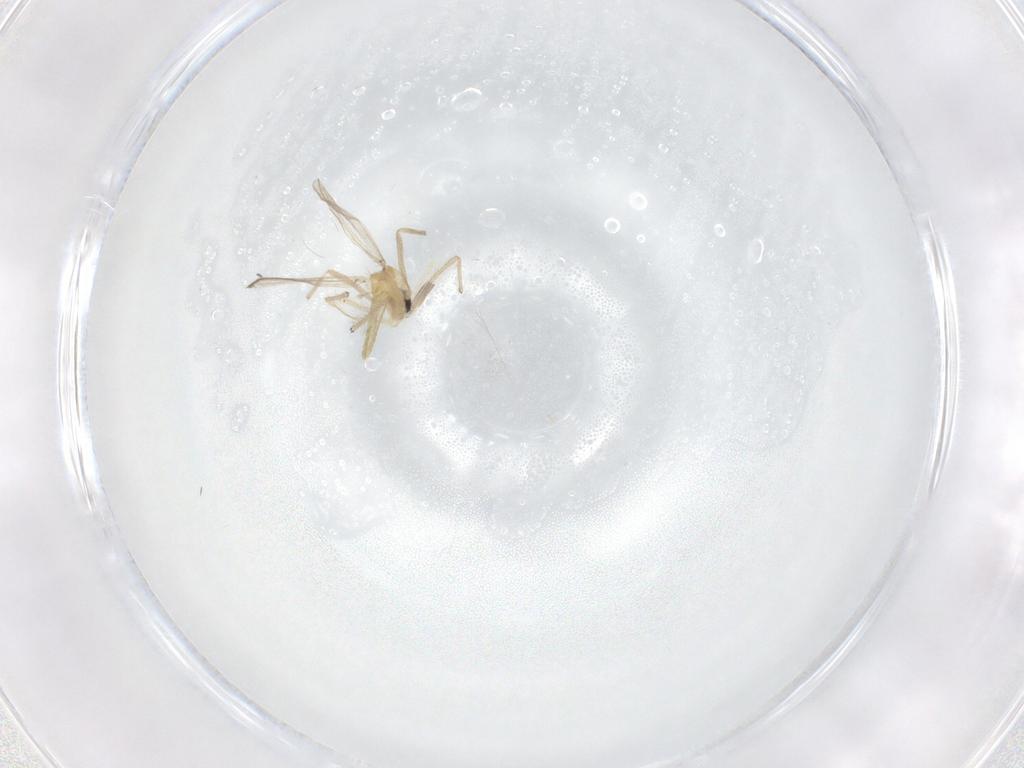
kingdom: Animalia
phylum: Arthropoda
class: Insecta
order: Diptera
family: Chironomidae
